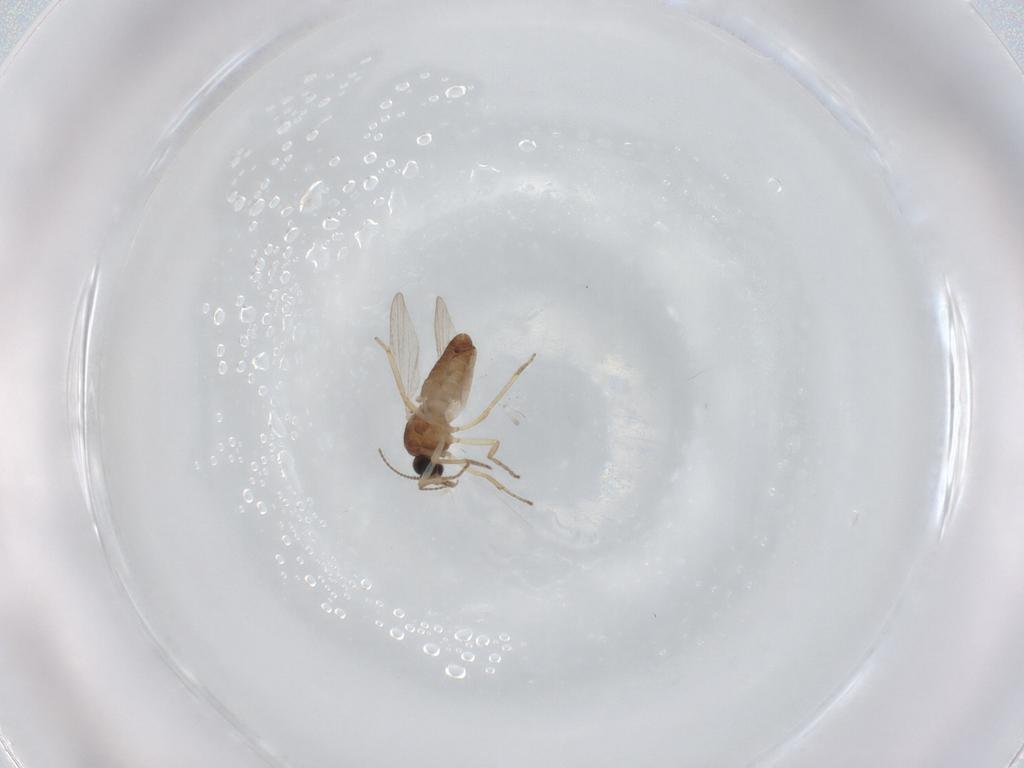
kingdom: Animalia
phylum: Arthropoda
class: Insecta
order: Diptera
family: Ceratopogonidae
